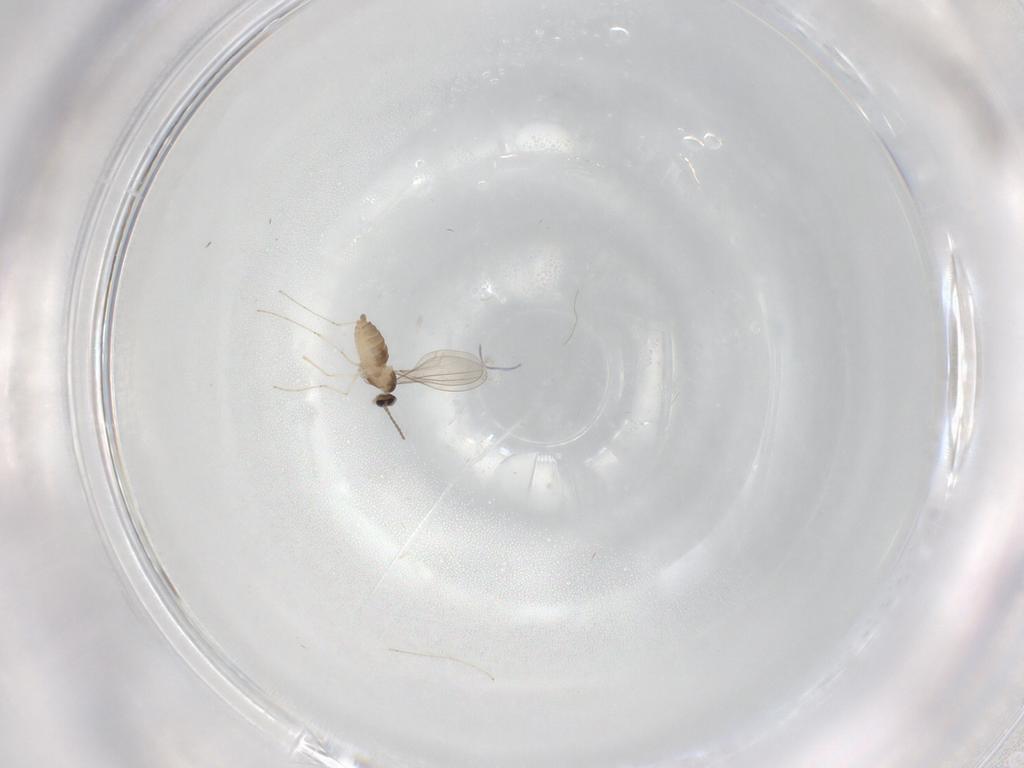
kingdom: Animalia
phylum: Arthropoda
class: Insecta
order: Diptera
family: Cecidomyiidae
